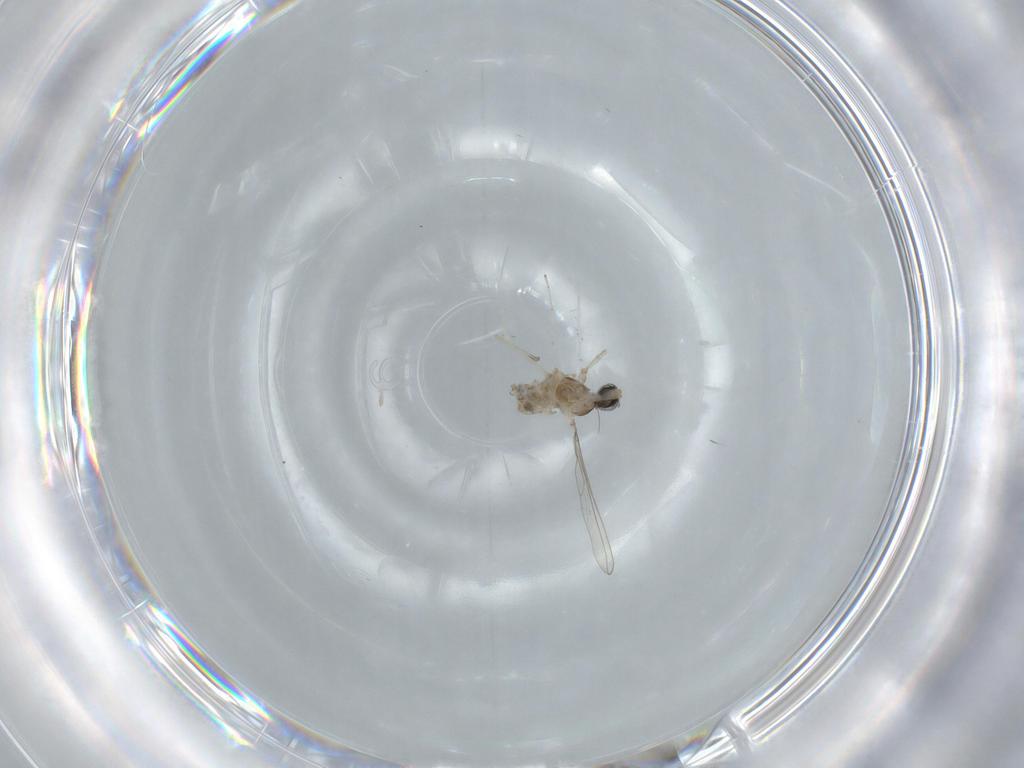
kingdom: Animalia
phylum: Arthropoda
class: Insecta
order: Diptera
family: Cecidomyiidae
